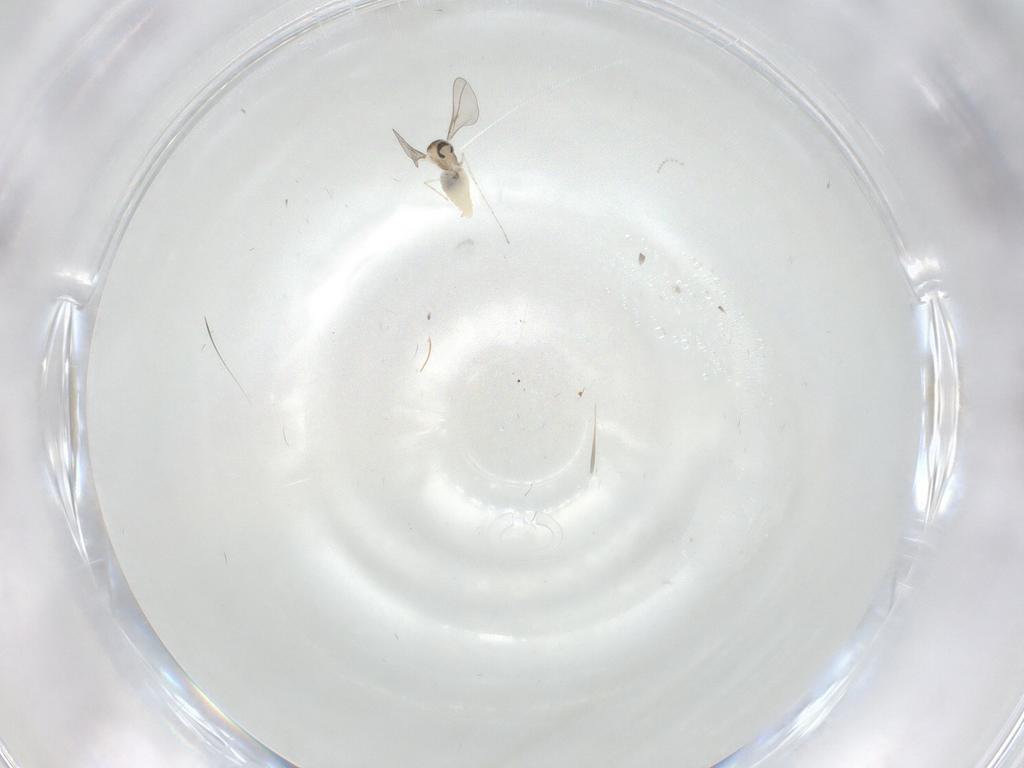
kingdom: Animalia
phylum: Arthropoda
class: Insecta
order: Diptera
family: Cecidomyiidae
